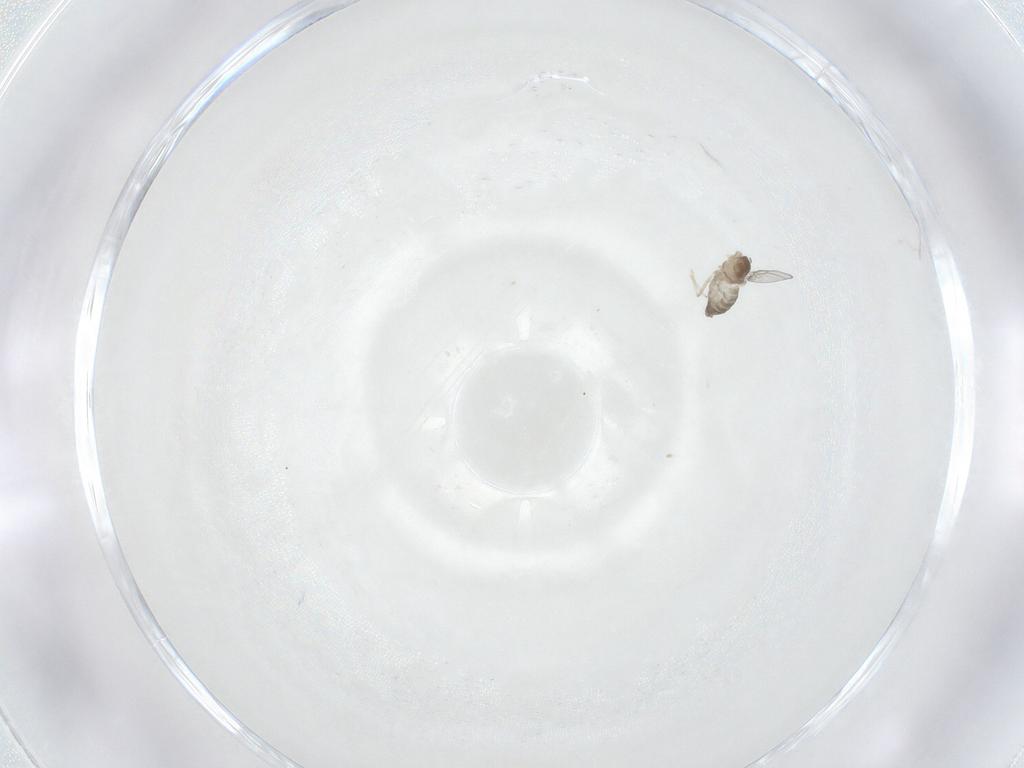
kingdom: Animalia
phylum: Arthropoda
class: Insecta
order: Diptera
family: Cecidomyiidae
